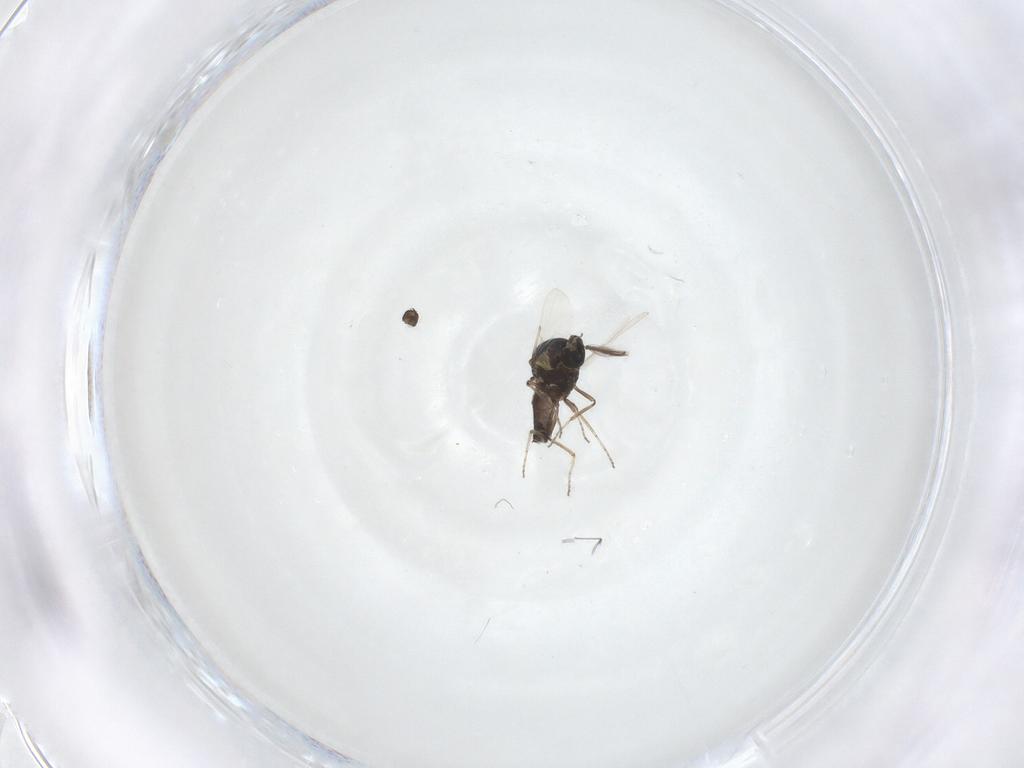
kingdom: Animalia
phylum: Arthropoda
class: Insecta
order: Diptera
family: Ceratopogonidae
